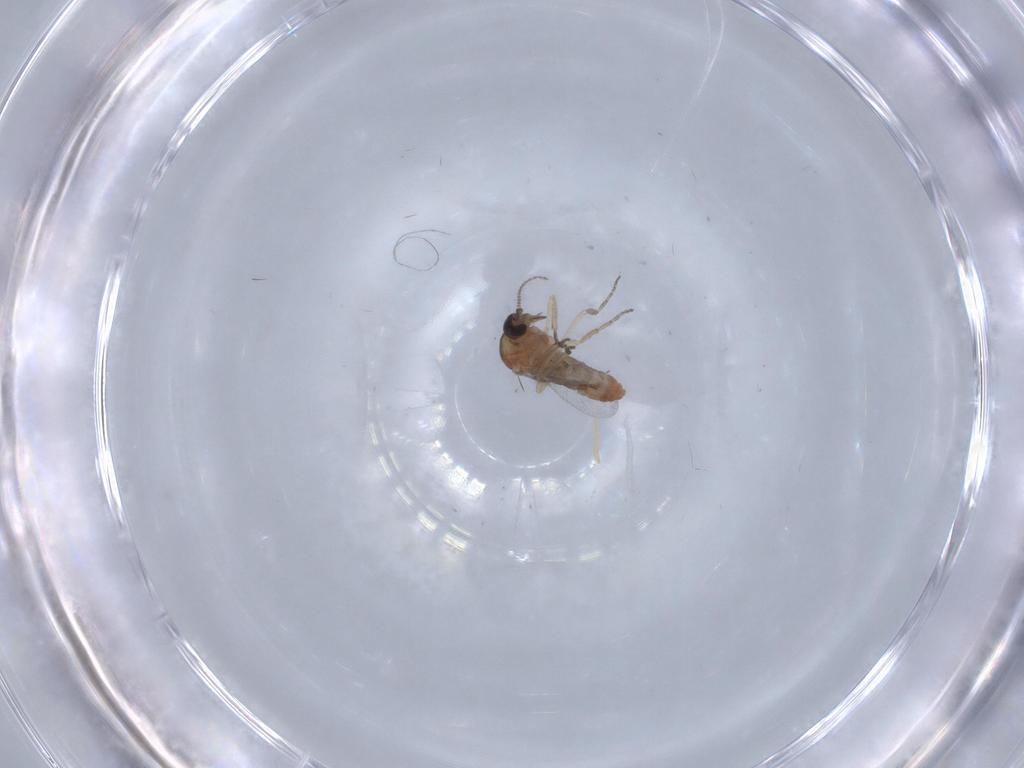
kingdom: Animalia
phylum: Arthropoda
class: Insecta
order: Diptera
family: Ceratopogonidae
